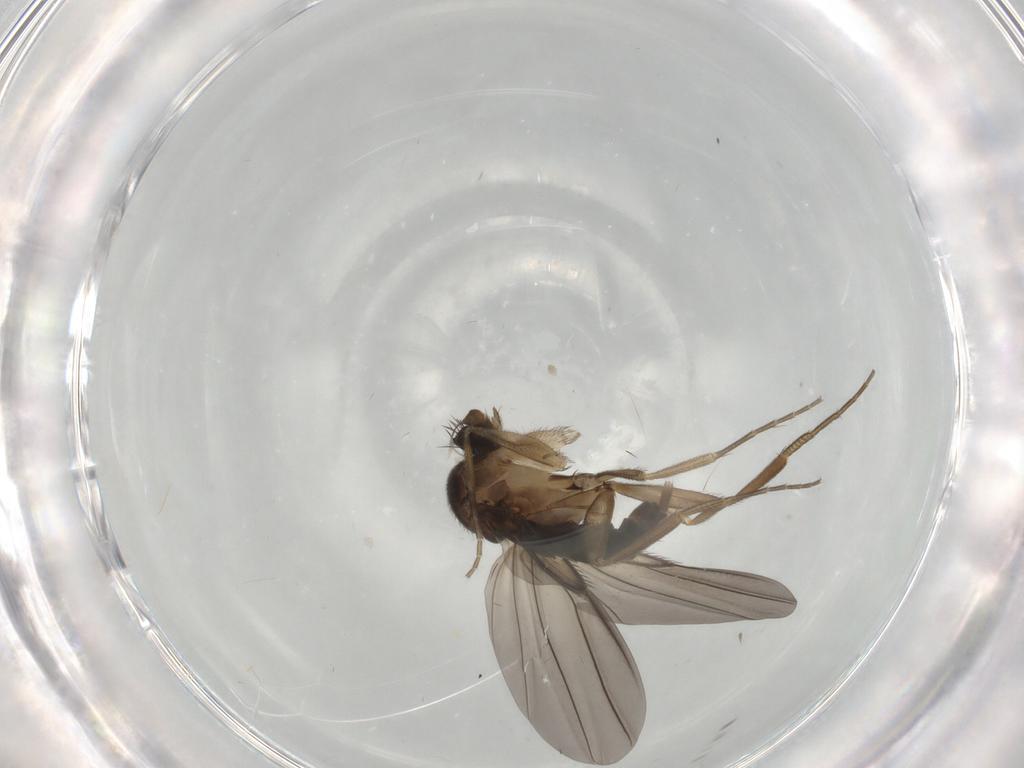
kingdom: Animalia
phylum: Arthropoda
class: Insecta
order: Diptera
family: Phoridae
